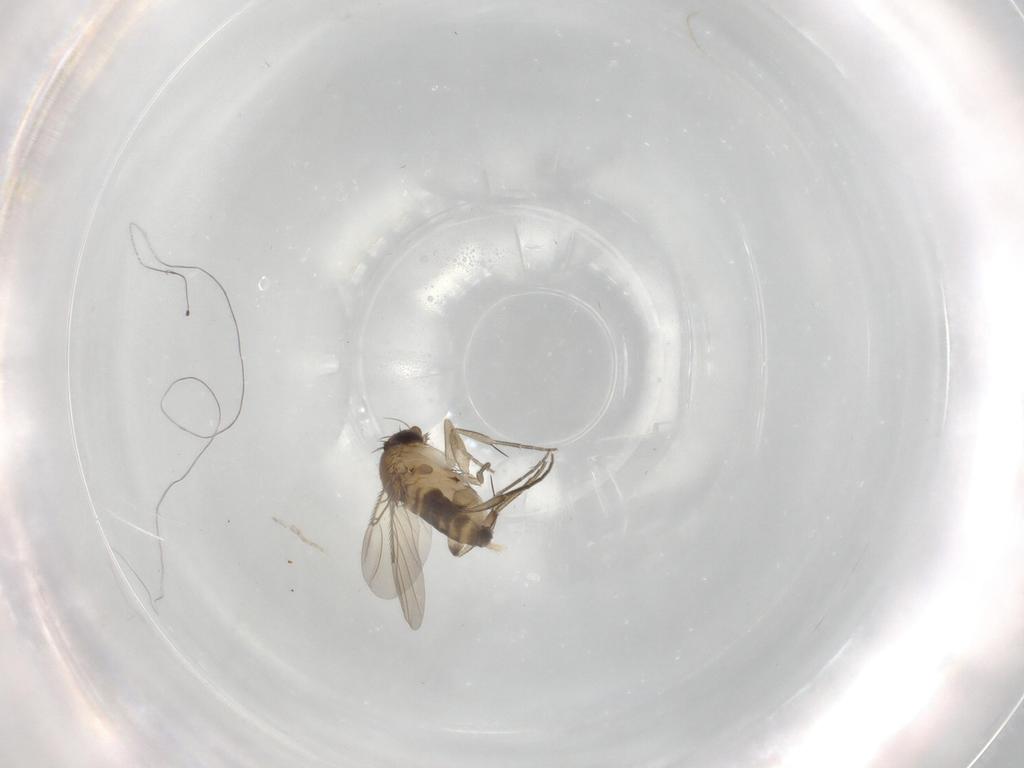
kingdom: Animalia
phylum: Arthropoda
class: Insecta
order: Diptera
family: Phoridae
